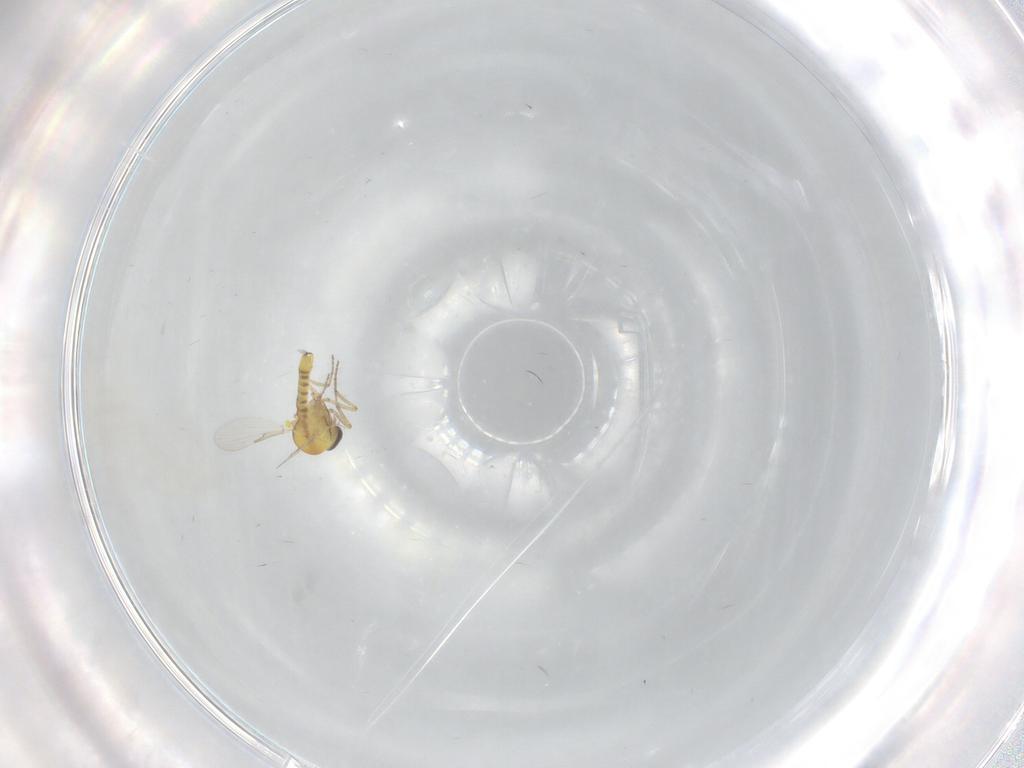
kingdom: Animalia
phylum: Arthropoda
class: Insecta
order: Diptera
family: Ceratopogonidae
